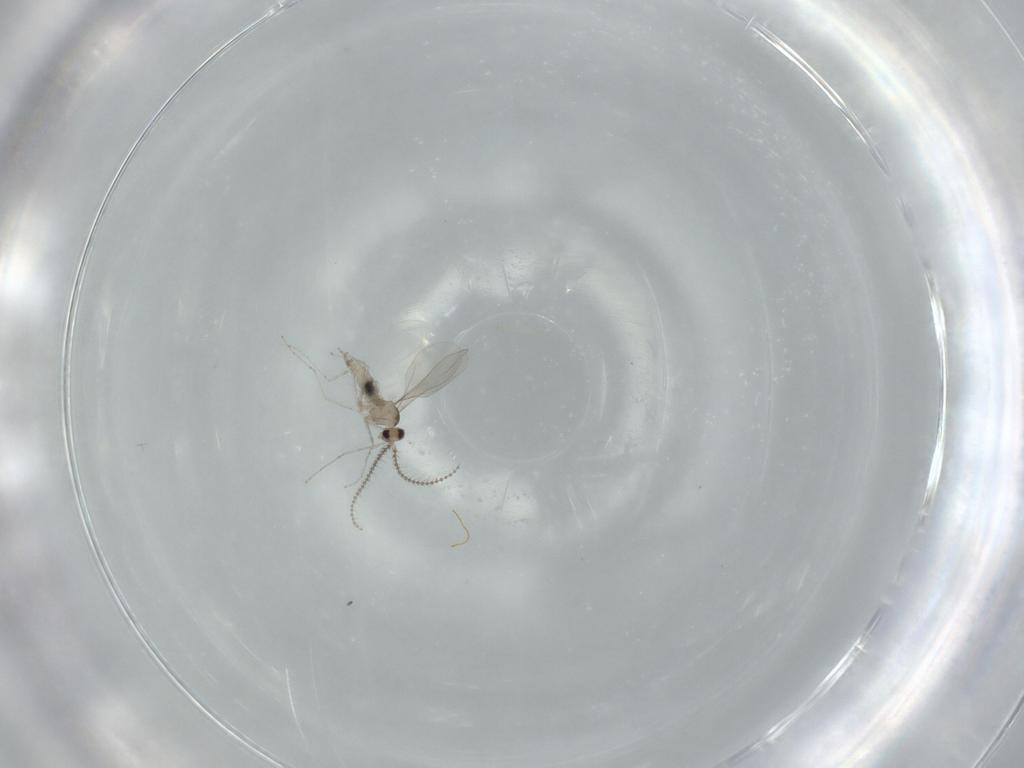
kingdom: Animalia
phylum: Arthropoda
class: Insecta
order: Diptera
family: Cecidomyiidae
